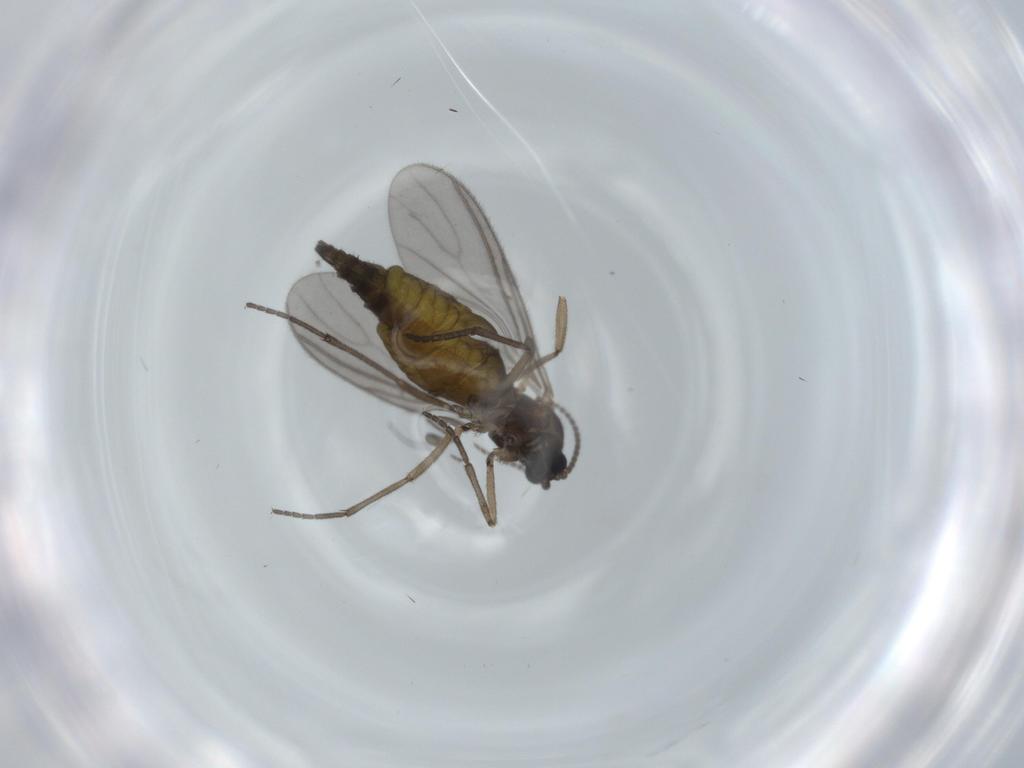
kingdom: Animalia
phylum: Arthropoda
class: Insecta
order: Diptera
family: Sciaridae
